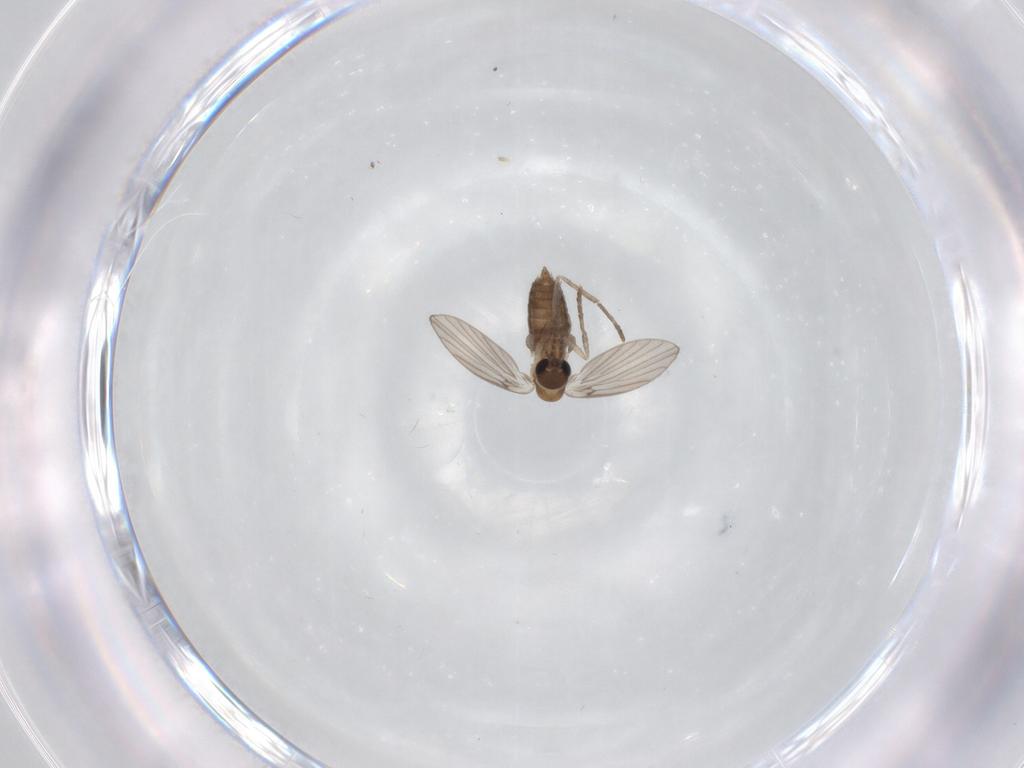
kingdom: Animalia
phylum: Arthropoda
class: Insecta
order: Diptera
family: Psychodidae
